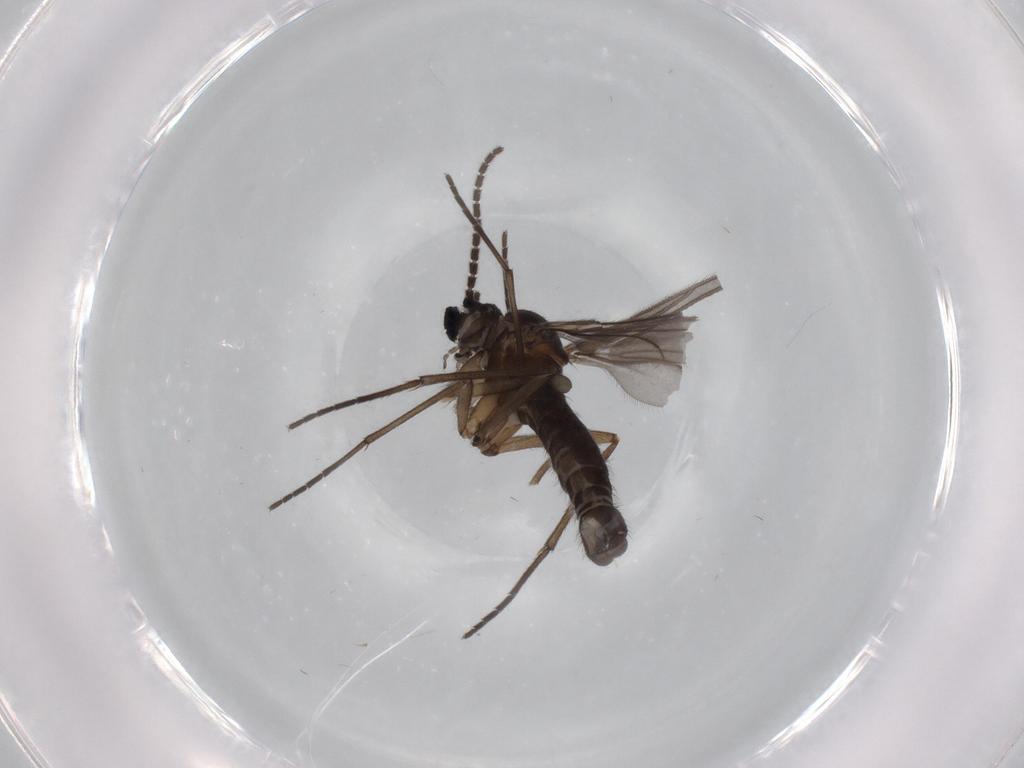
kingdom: Animalia
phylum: Arthropoda
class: Insecta
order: Diptera
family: Sciaridae
